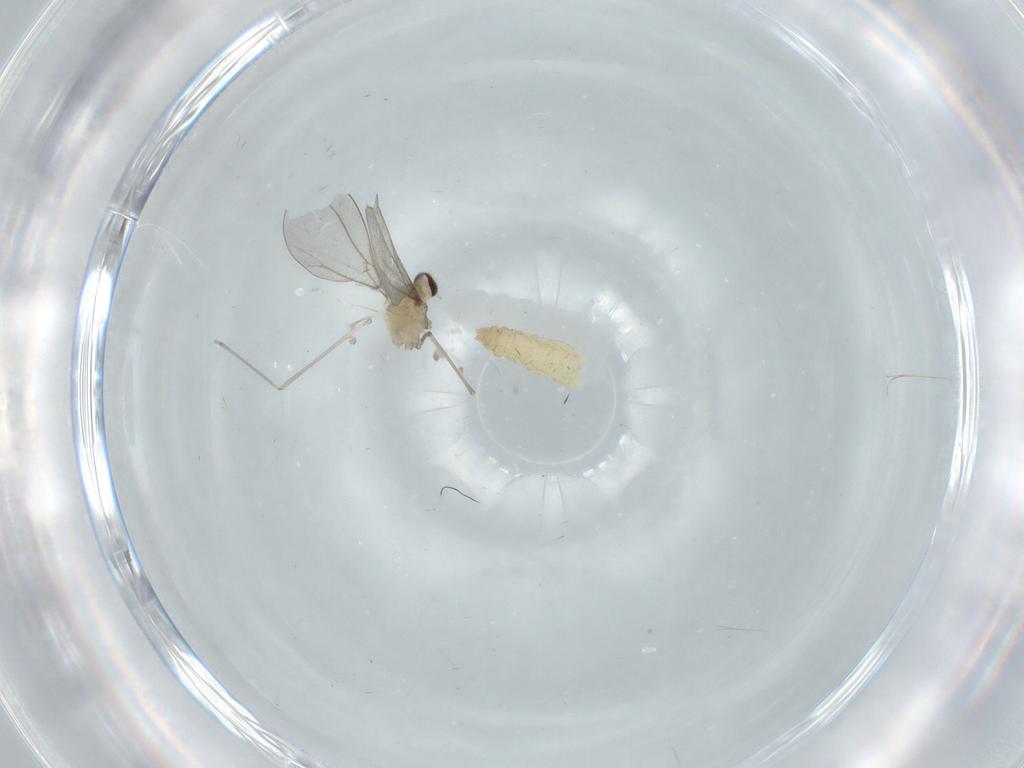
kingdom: Animalia
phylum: Arthropoda
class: Insecta
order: Diptera
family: Cecidomyiidae
